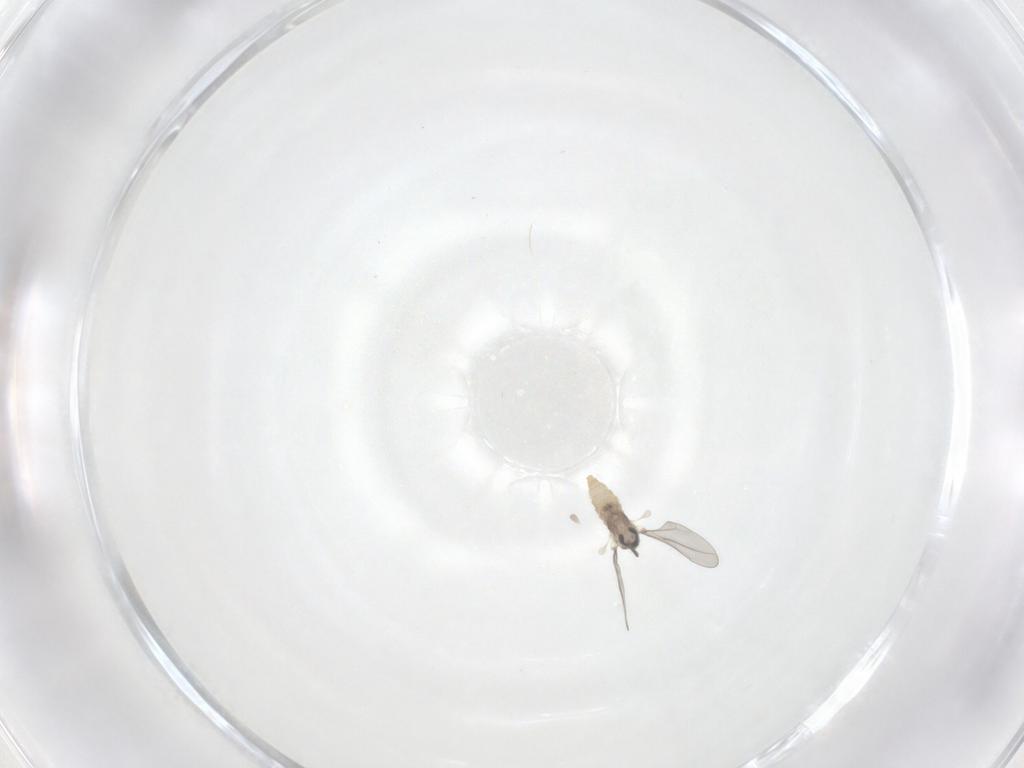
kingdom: Animalia
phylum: Arthropoda
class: Insecta
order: Diptera
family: Cecidomyiidae
